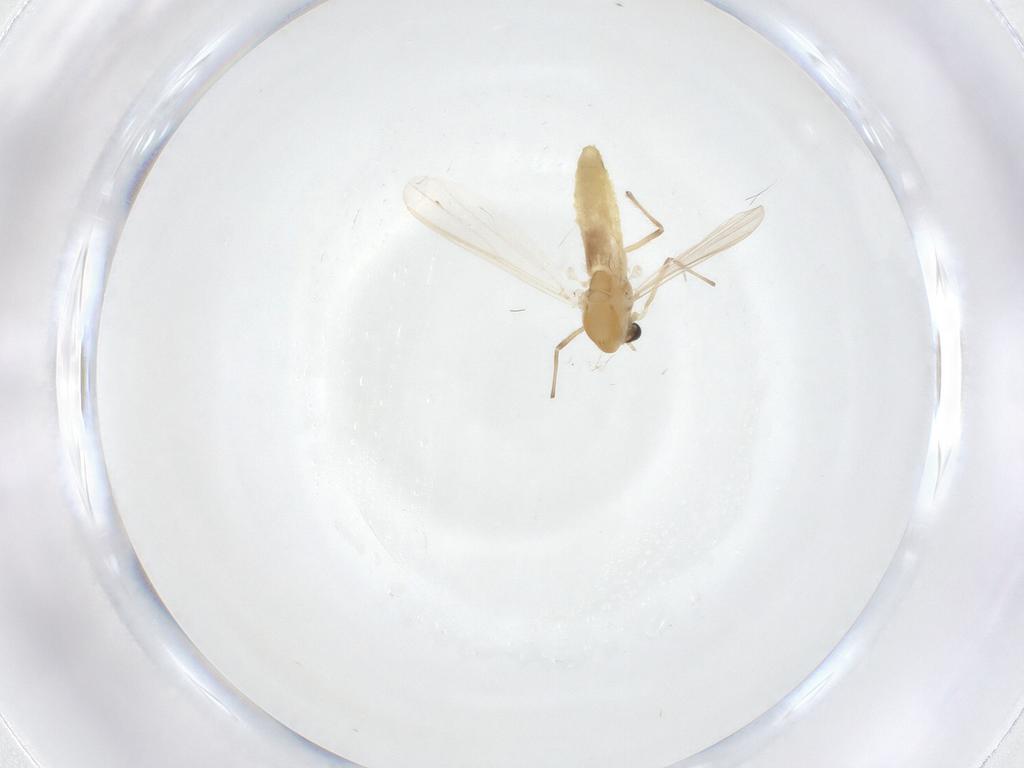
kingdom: Animalia
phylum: Arthropoda
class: Insecta
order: Diptera
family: Chironomidae
